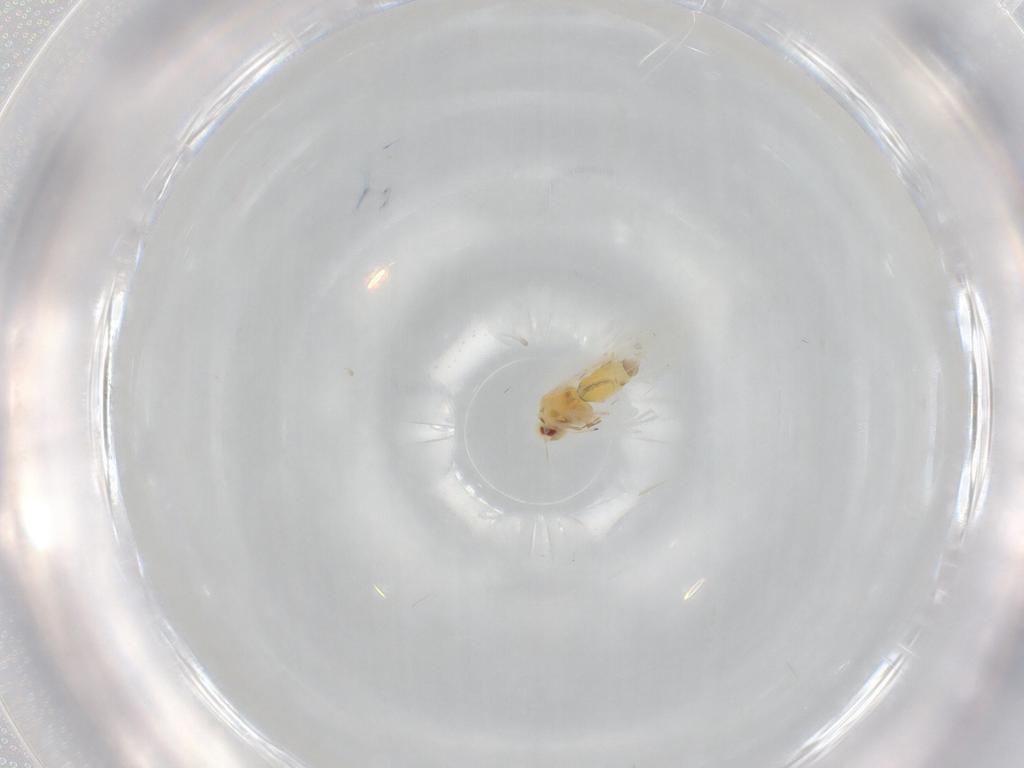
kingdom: Animalia
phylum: Arthropoda
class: Insecta
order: Hemiptera
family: Aleyrodidae
